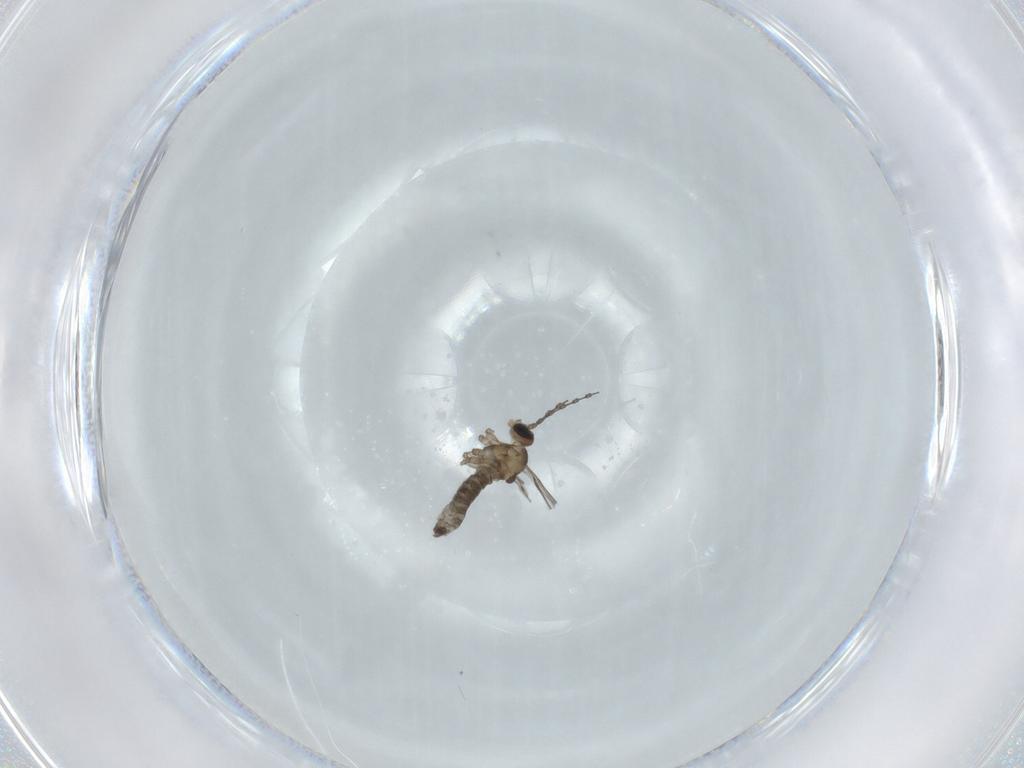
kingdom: Animalia
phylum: Arthropoda
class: Insecta
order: Diptera
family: Cecidomyiidae
